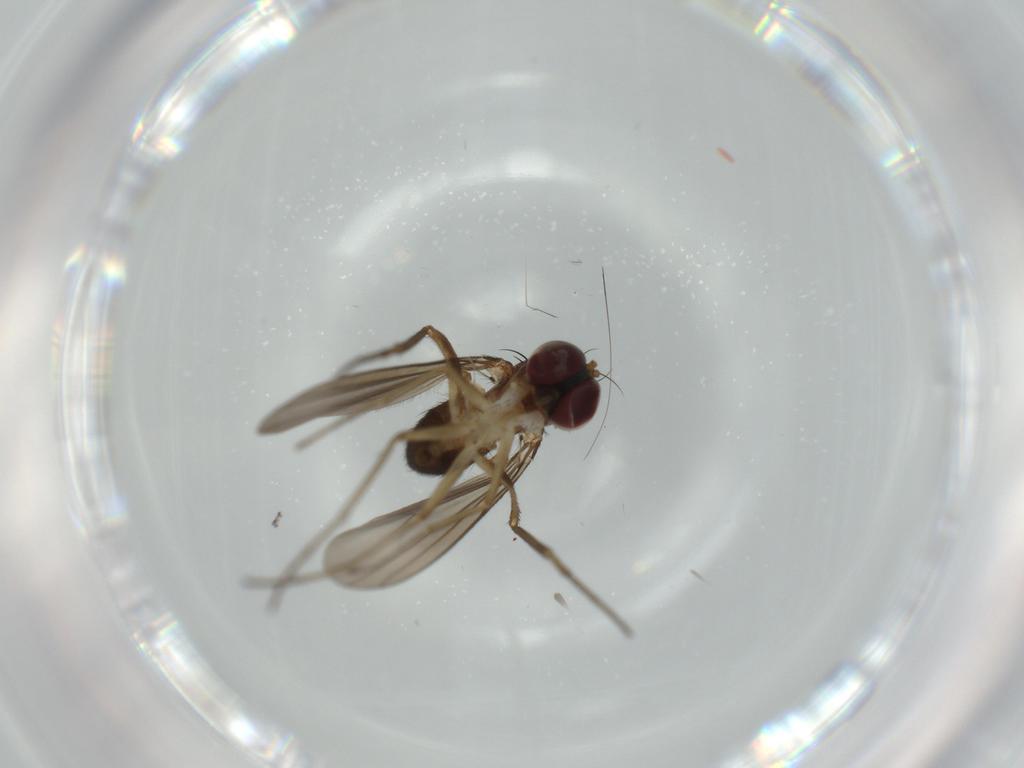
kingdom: Animalia
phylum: Arthropoda
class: Insecta
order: Diptera
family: Dolichopodidae
